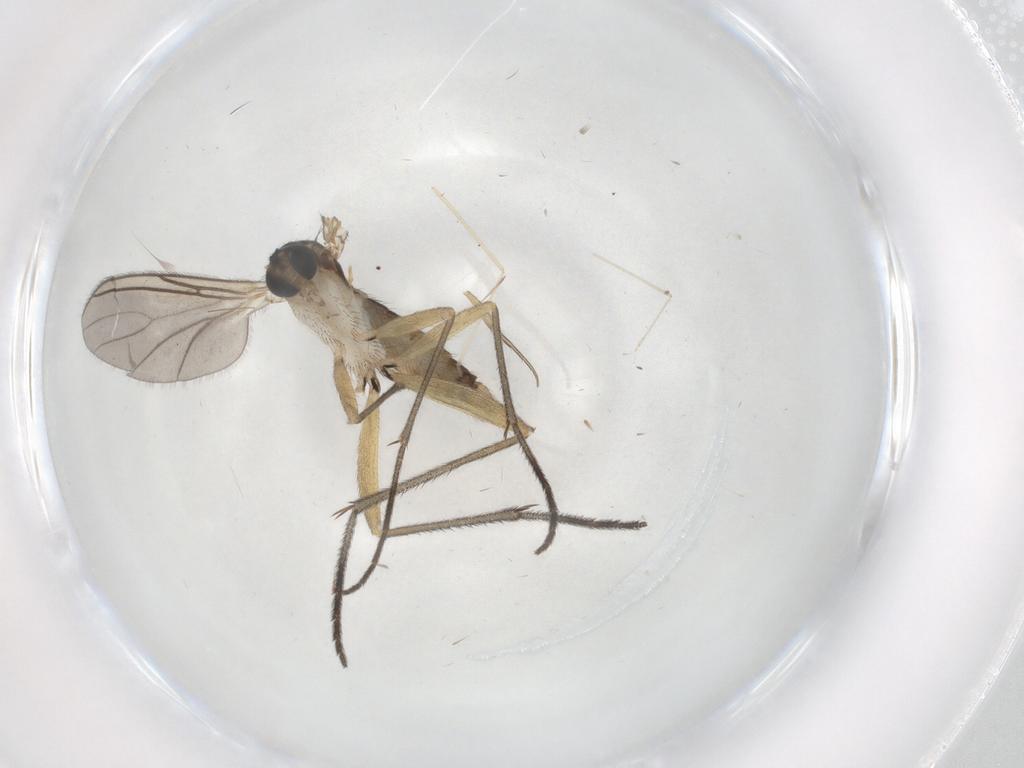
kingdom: Animalia
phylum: Arthropoda
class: Insecta
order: Diptera
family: Sciaridae
